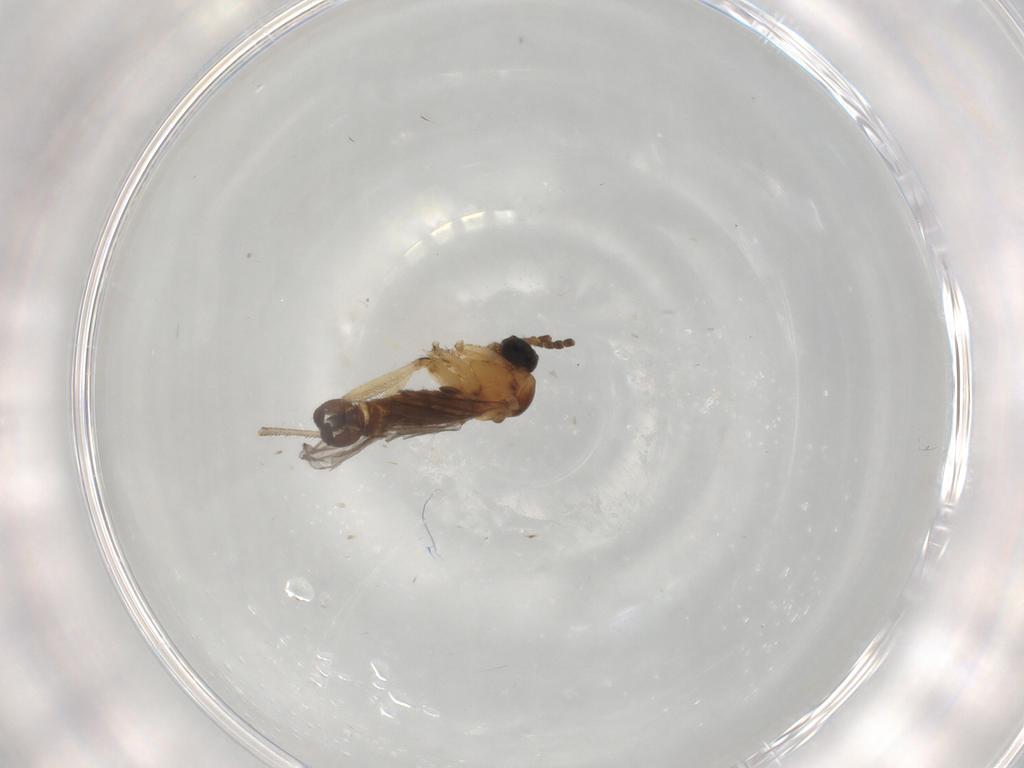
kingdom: Animalia
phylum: Arthropoda
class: Insecta
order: Diptera
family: Sciaridae
